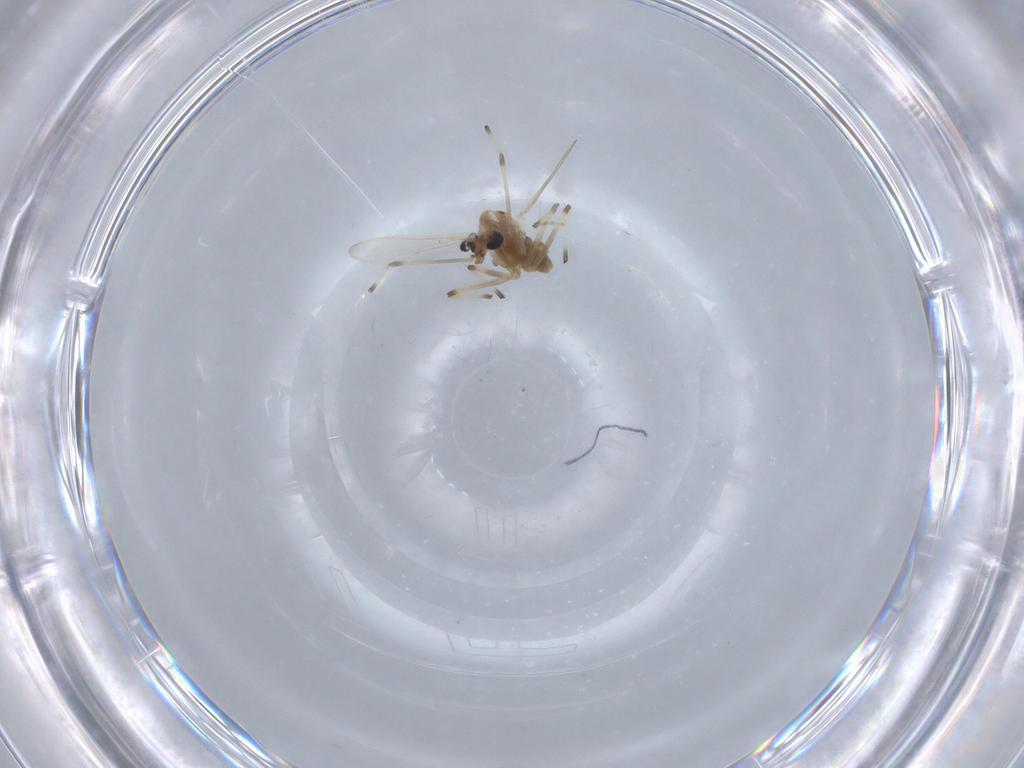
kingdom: Animalia
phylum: Arthropoda
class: Insecta
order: Diptera
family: Chironomidae
